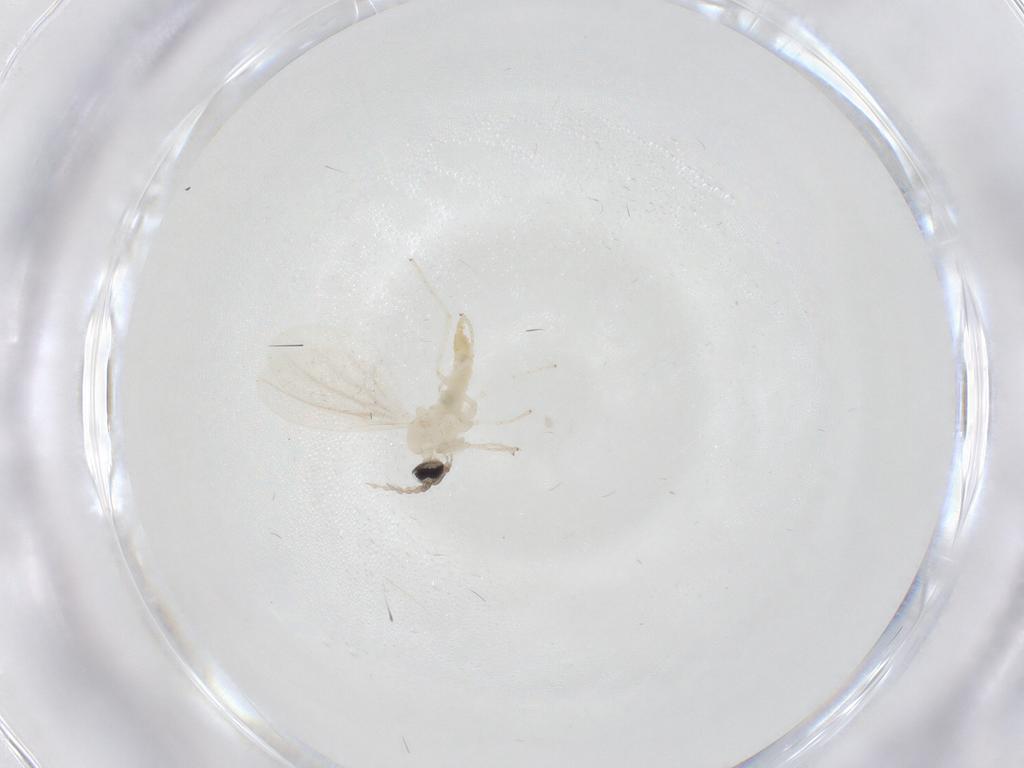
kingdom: Animalia
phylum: Arthropoda
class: Insecta
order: Diptera
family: Cecidomyiidae
